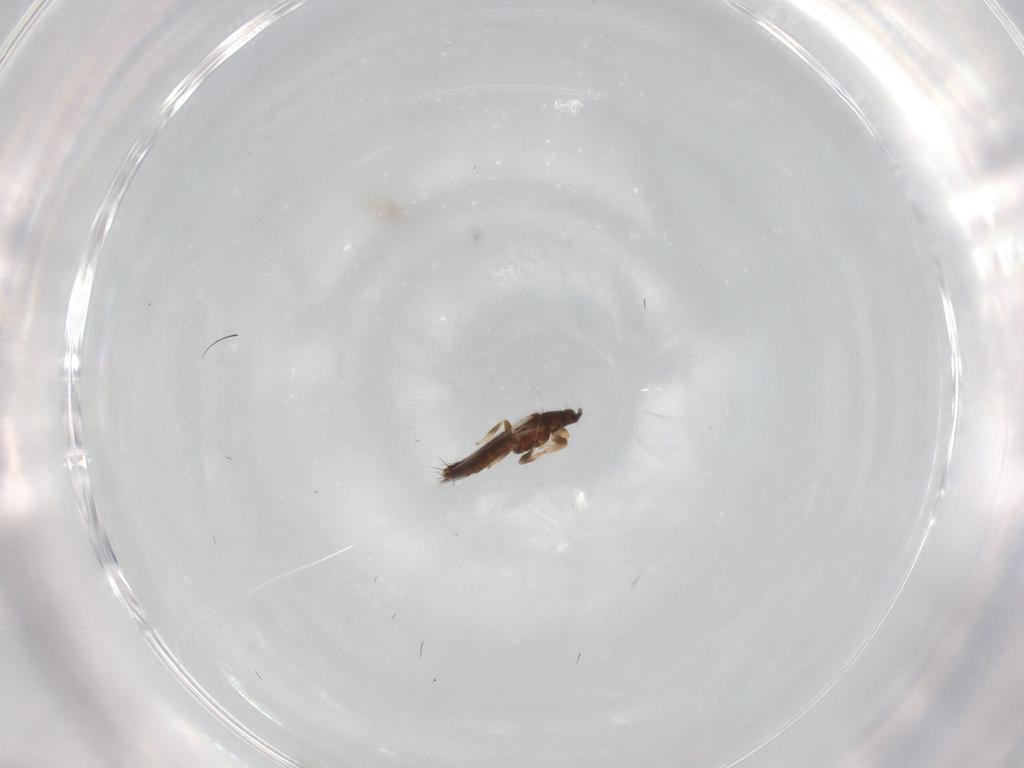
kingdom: Animalia
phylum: Arthropoda
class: Insecta
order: Thysanoptera
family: Thripidae
